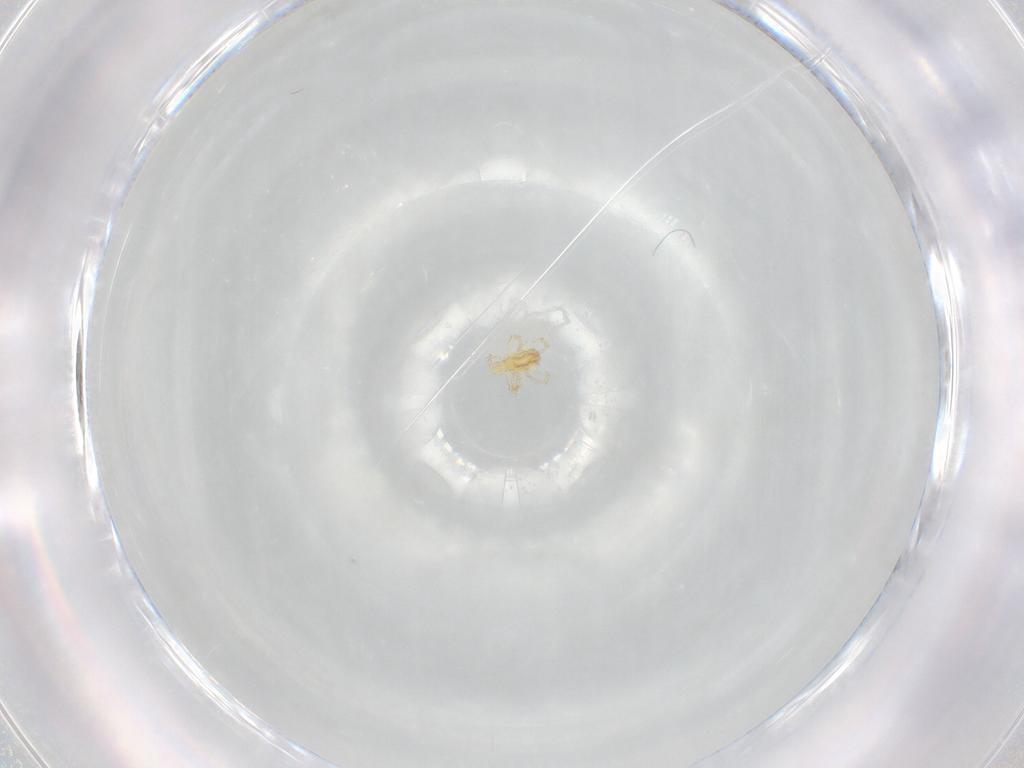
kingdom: Animalia
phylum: Arthropoda
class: Arachnida
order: Trombidiformes
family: Erythraeidae
